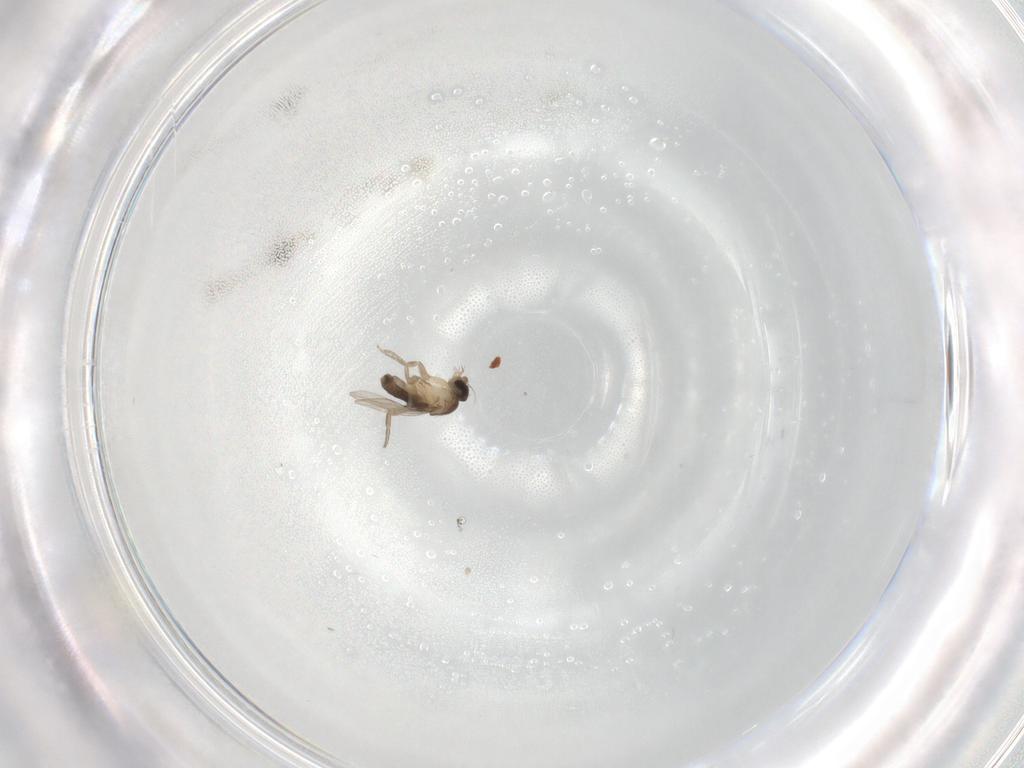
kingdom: Animalia
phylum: Arthropoda
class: Insecta
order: Diptera
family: Phoridae
